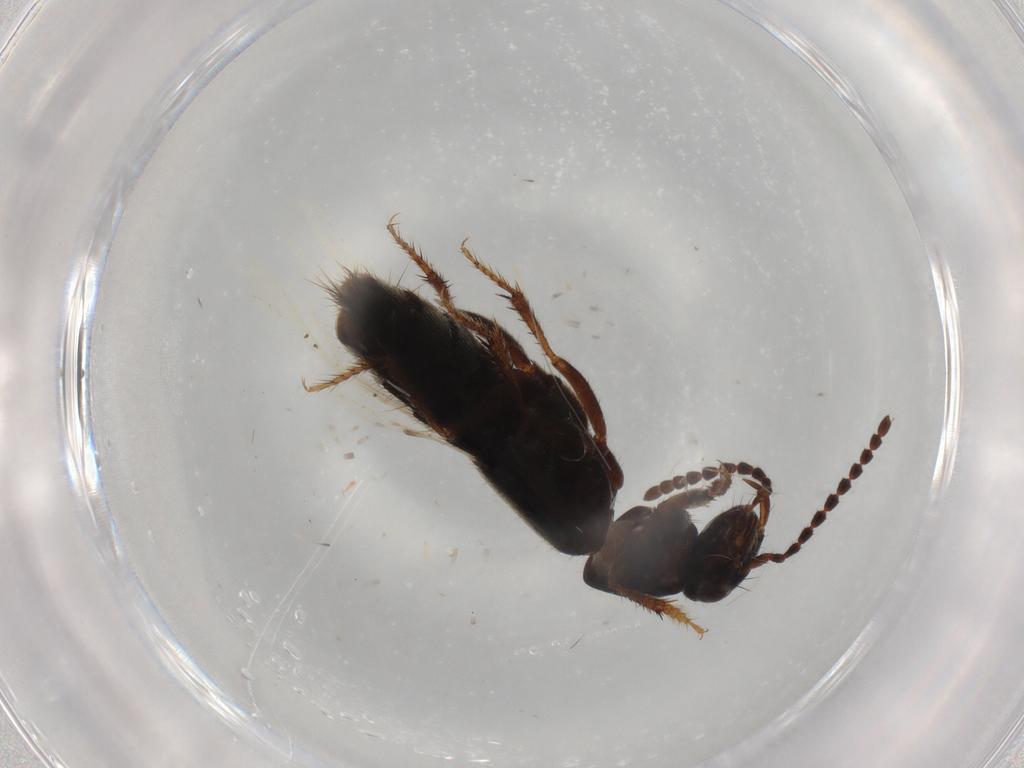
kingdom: Animalia
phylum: Arthropoda
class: Insecta
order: Coleoptera
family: Staphylinidae
